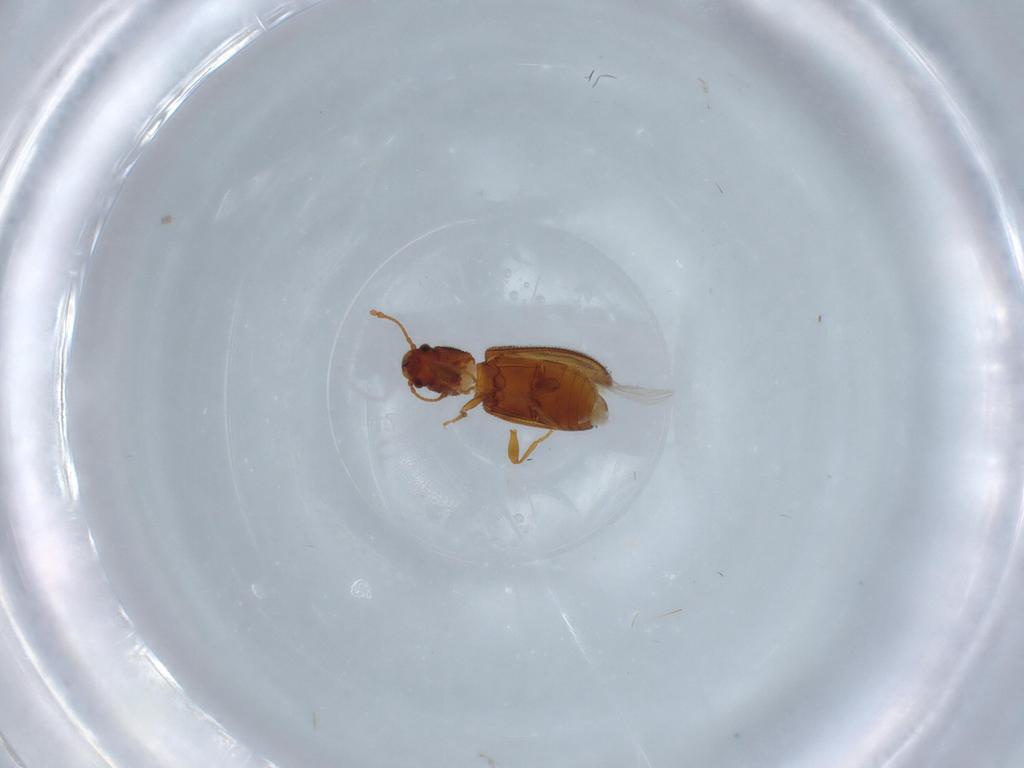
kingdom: Animalia
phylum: Arthropoda
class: Insecta
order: Coleoptera
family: Mycetophagidae
